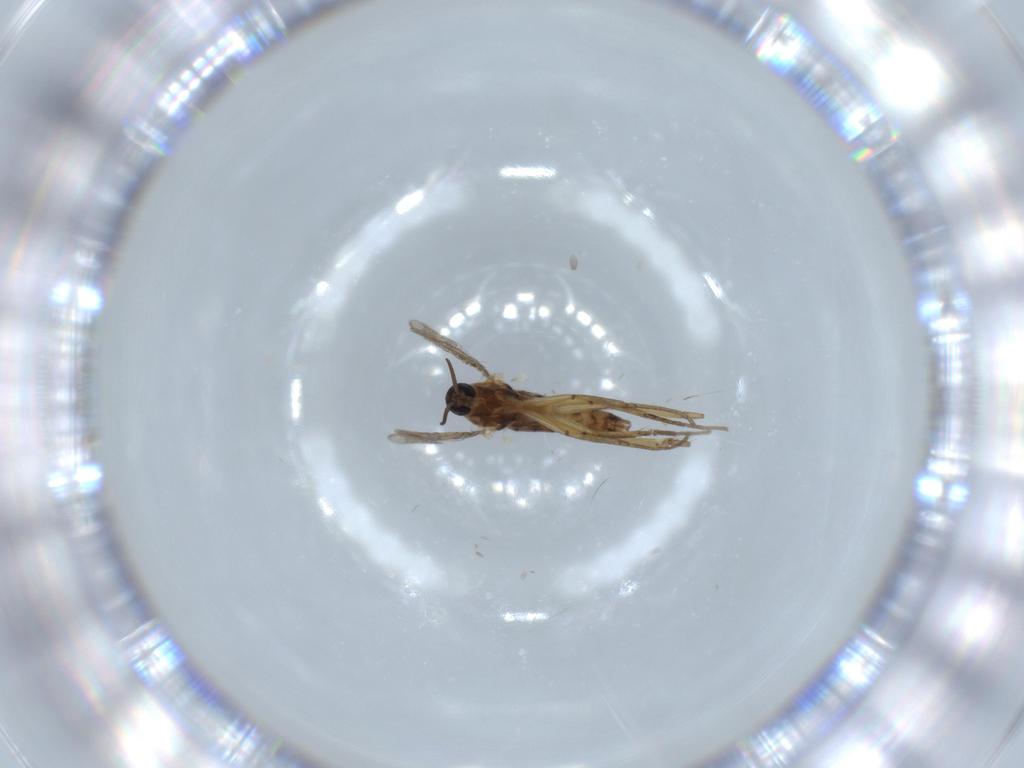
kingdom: Animalia
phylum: Arthropoda
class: Insecta
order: Diptera
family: Cecidomyiidae
